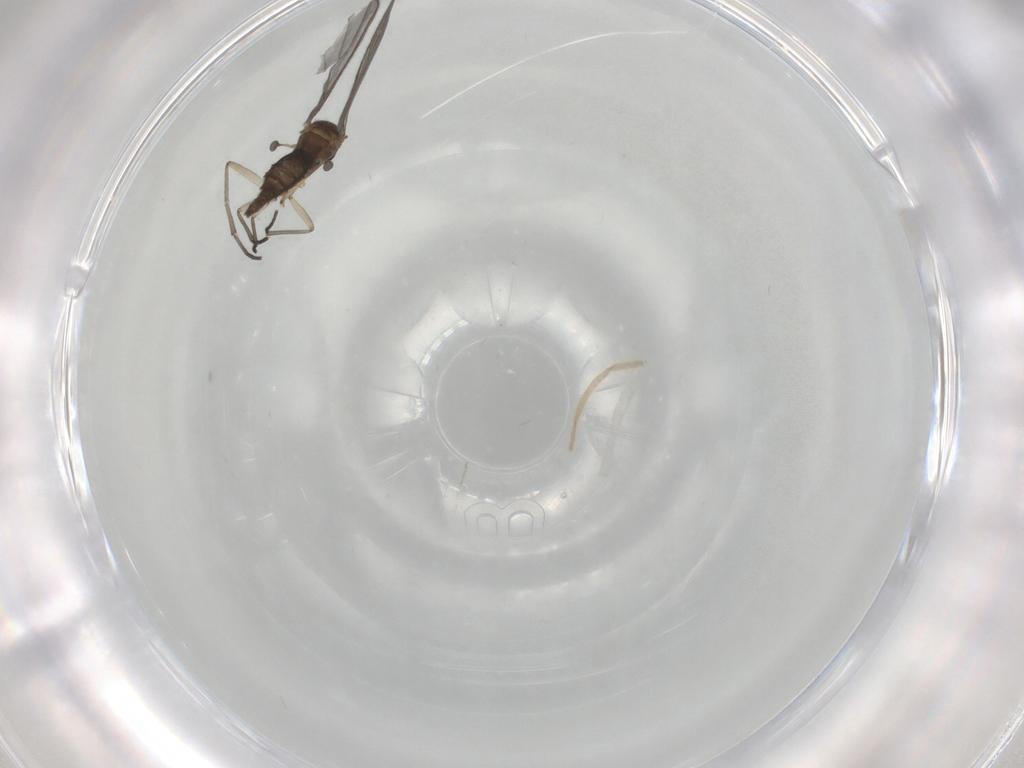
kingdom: Animalia
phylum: Arthropoda
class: Insecta
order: Diptera
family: Sciaridae
